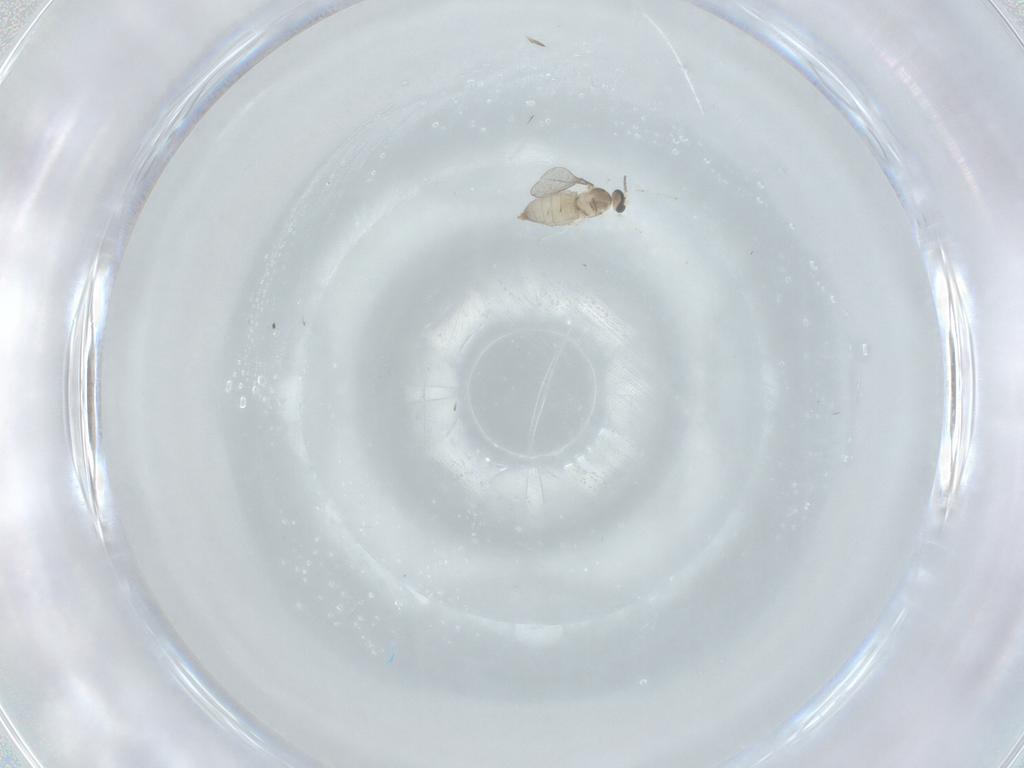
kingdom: Animalia
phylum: Arthropoda
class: Insecta
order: Diptera
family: Cecidomyiidae
